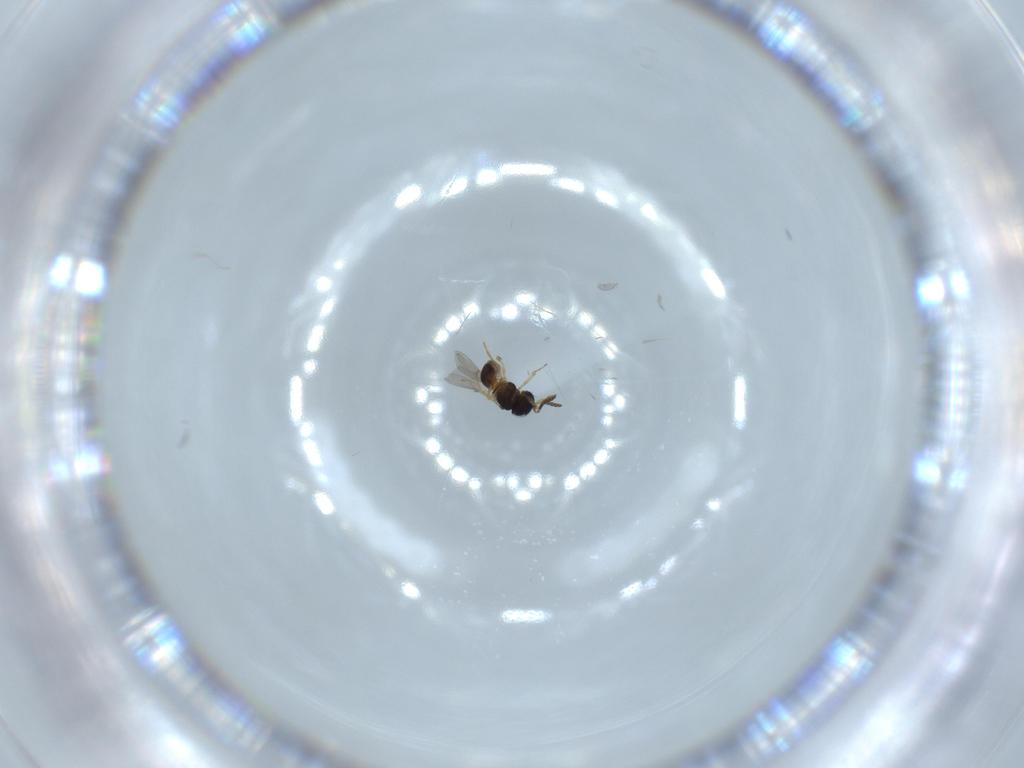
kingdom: Animalia
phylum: Arthropoda
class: Insecta
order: Hymenoptera
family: Scelionidae
